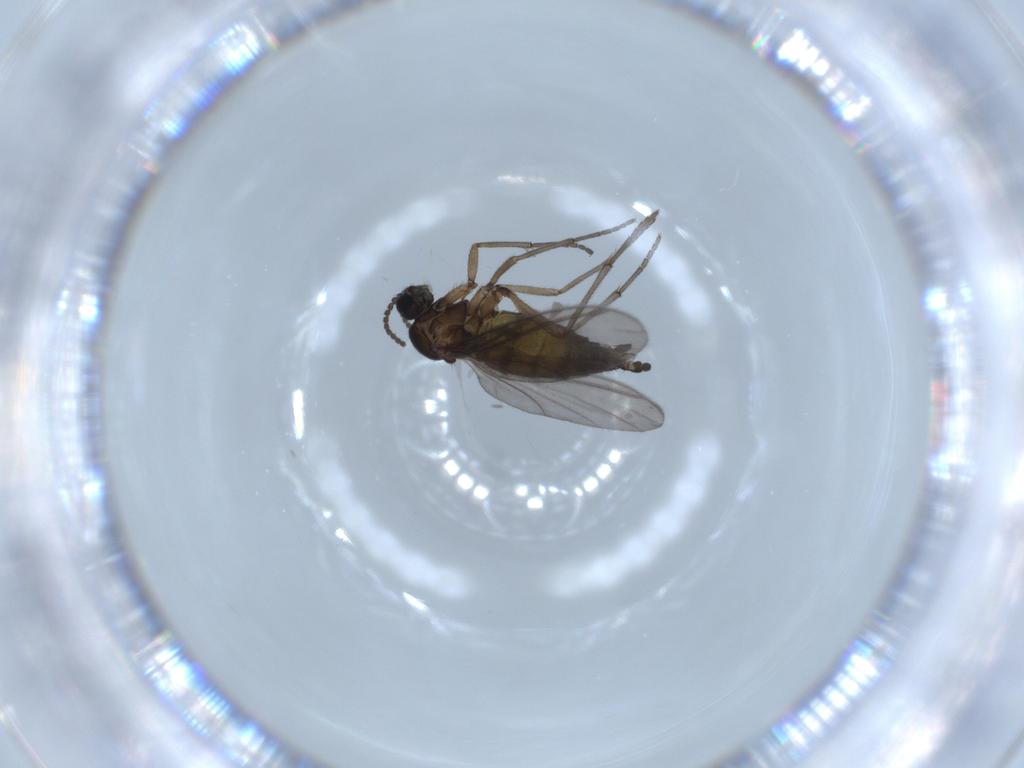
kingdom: Animalia
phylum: Arthropoda
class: Insecta
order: Diptera
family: Sciaridae
